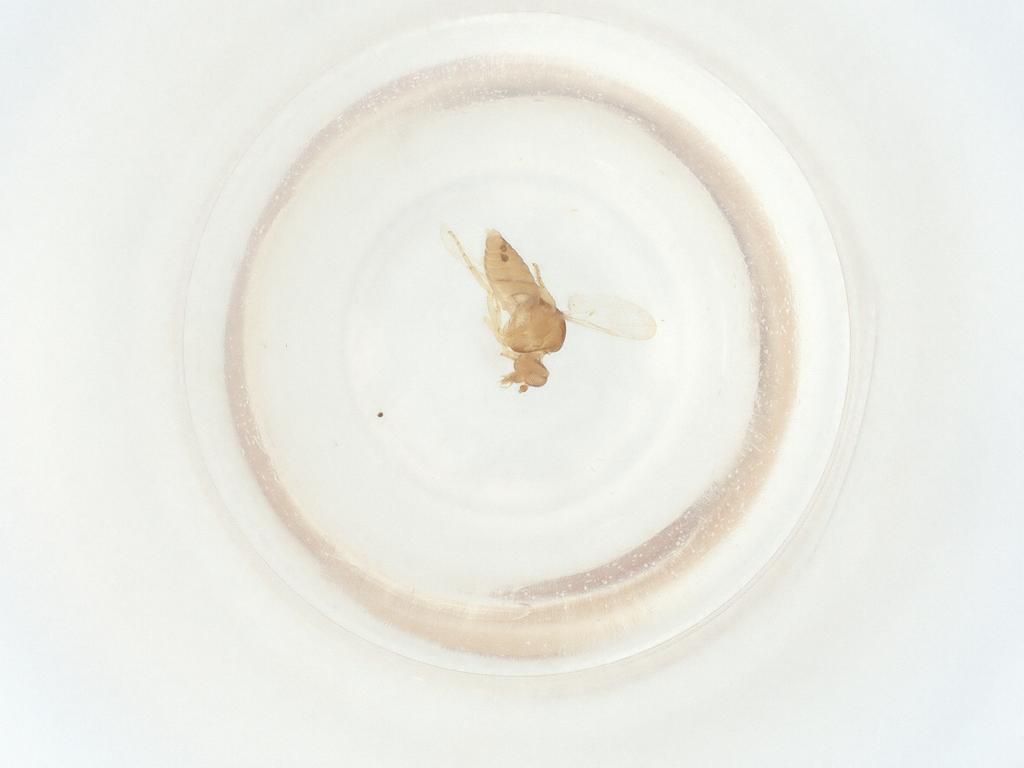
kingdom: Animalia
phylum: Arthropoda
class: Insecta
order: Diptera
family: Ceratopogonidae
